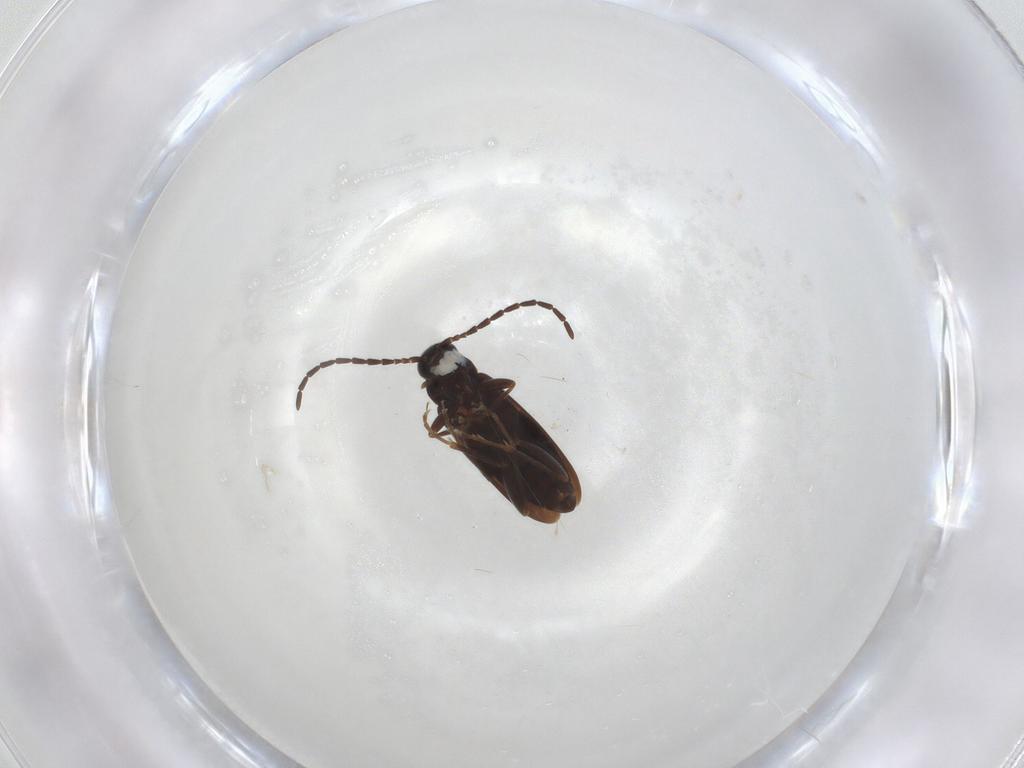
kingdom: Animalia
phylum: Arthropoda
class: Insecta
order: Coleoptera
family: Scraptiidae
